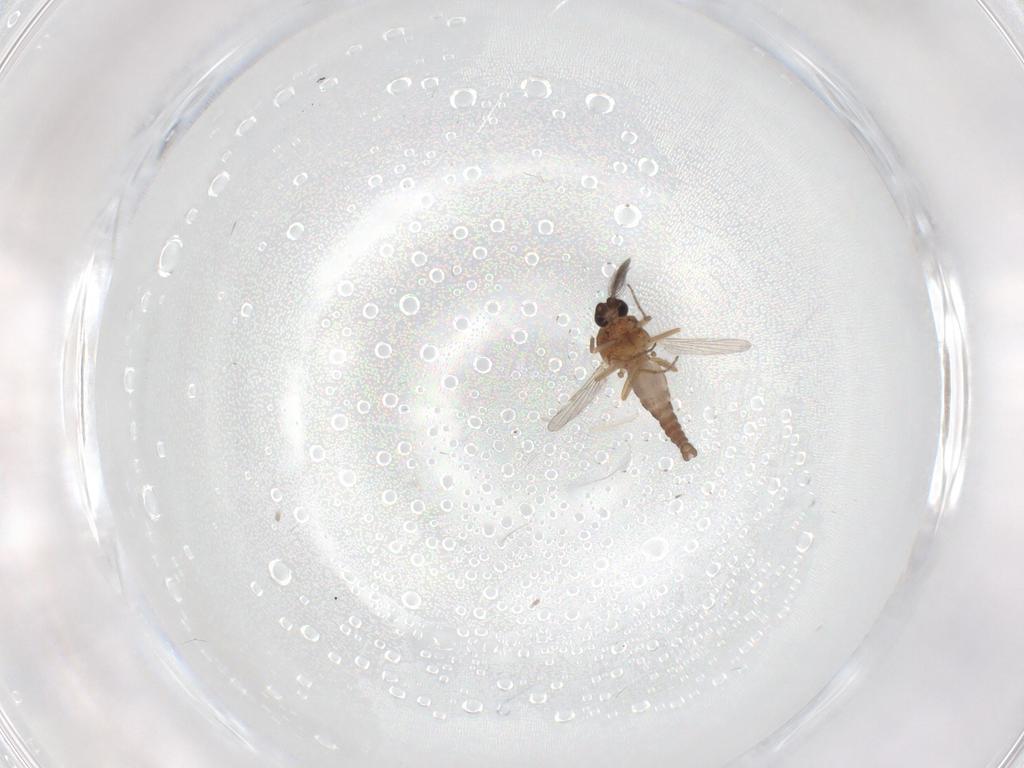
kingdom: Animalia
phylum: Arthropoda
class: Insecta
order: Diptera
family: Ceratopogonidae
